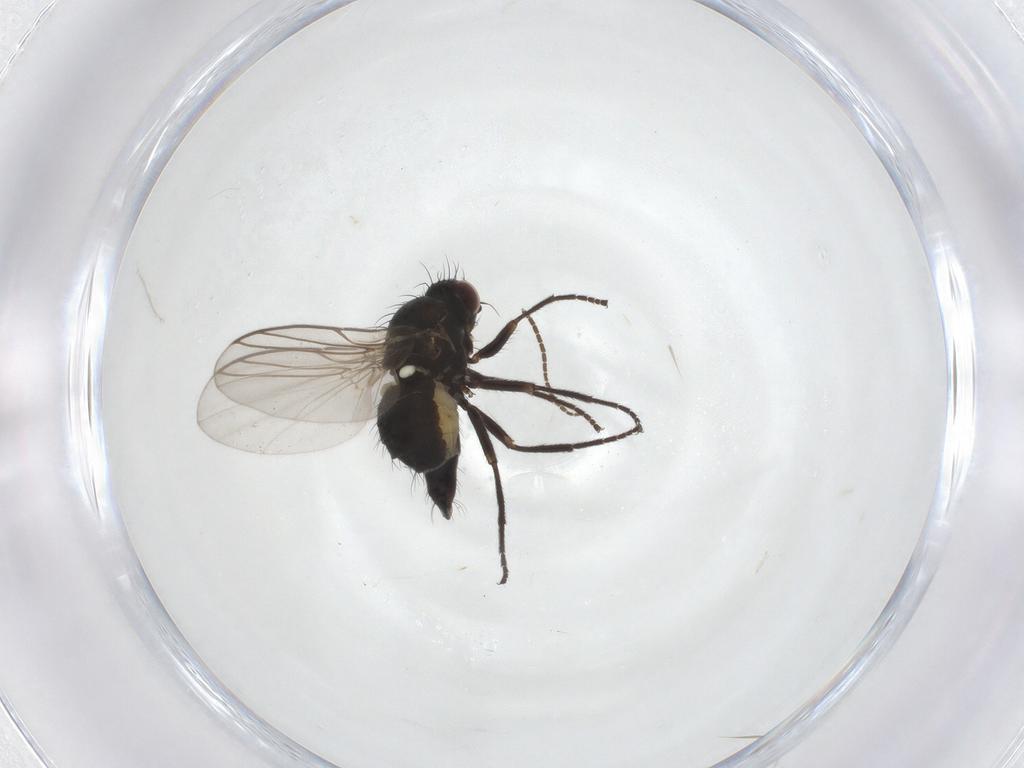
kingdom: Animalia
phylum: Arthropoda
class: Insecta
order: Diptera
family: Agromyzidae
